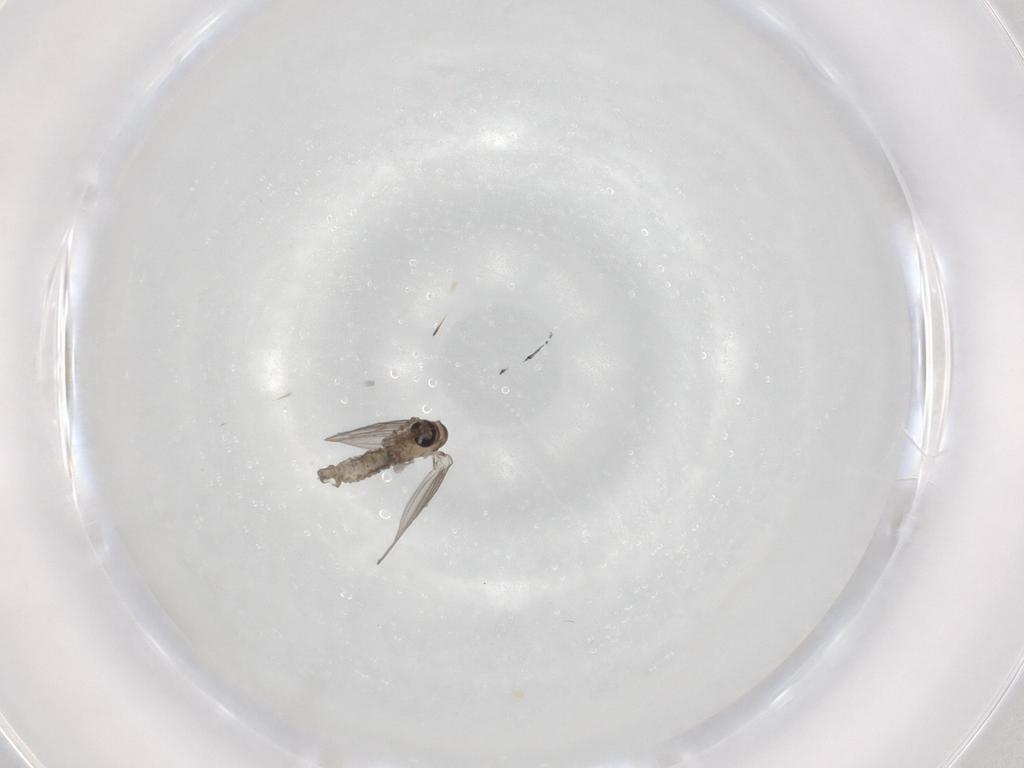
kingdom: Animalia
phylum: Arthropoda
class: Insecta
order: Diptera
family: Psychodidae
